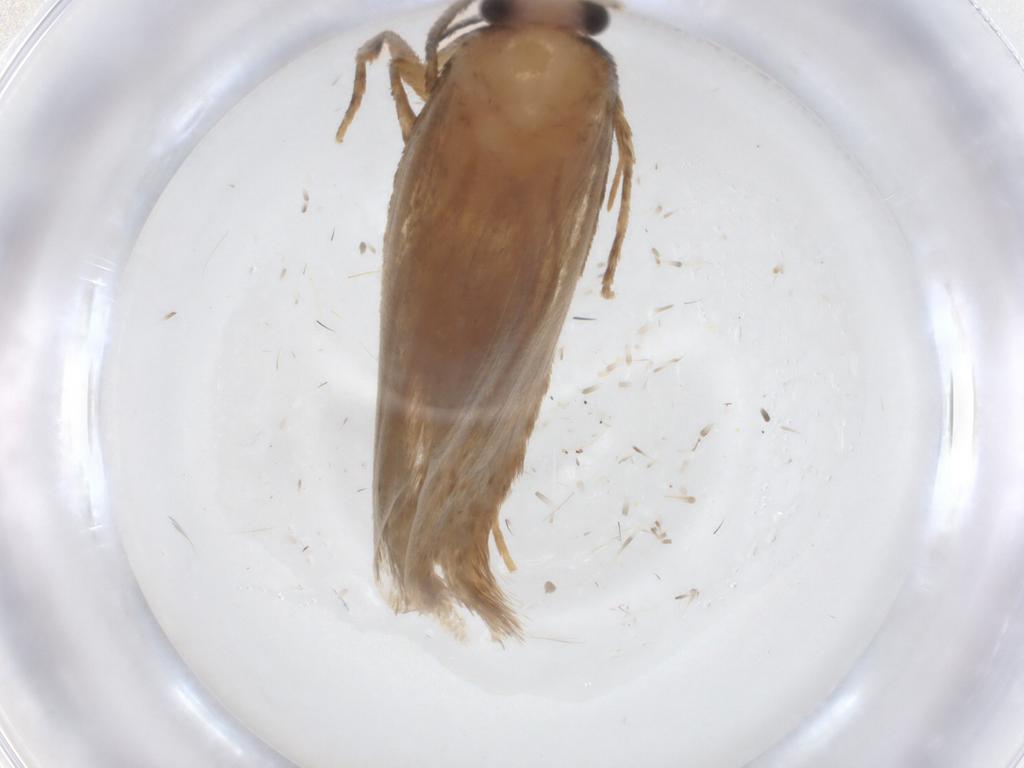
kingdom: Animalia
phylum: Arthropoda
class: Insecta
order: Lepidoptera
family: Tineidae
